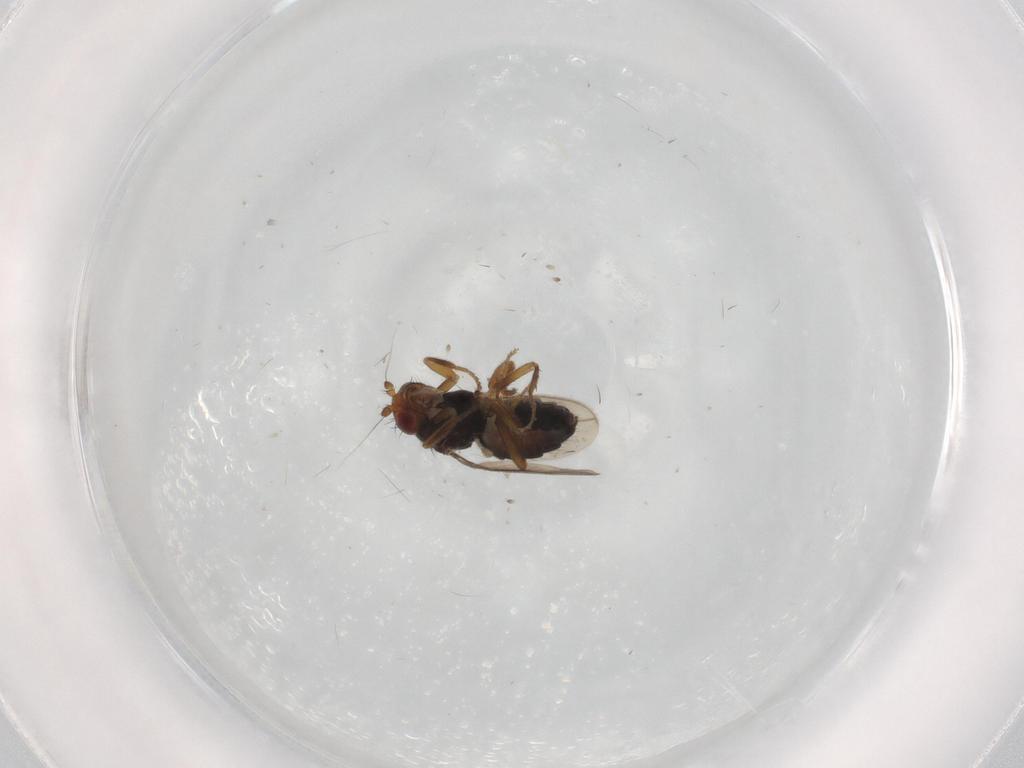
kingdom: Animalia
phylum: Arthropoda
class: Insecta
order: Diptera
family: Sphaeroceridae
